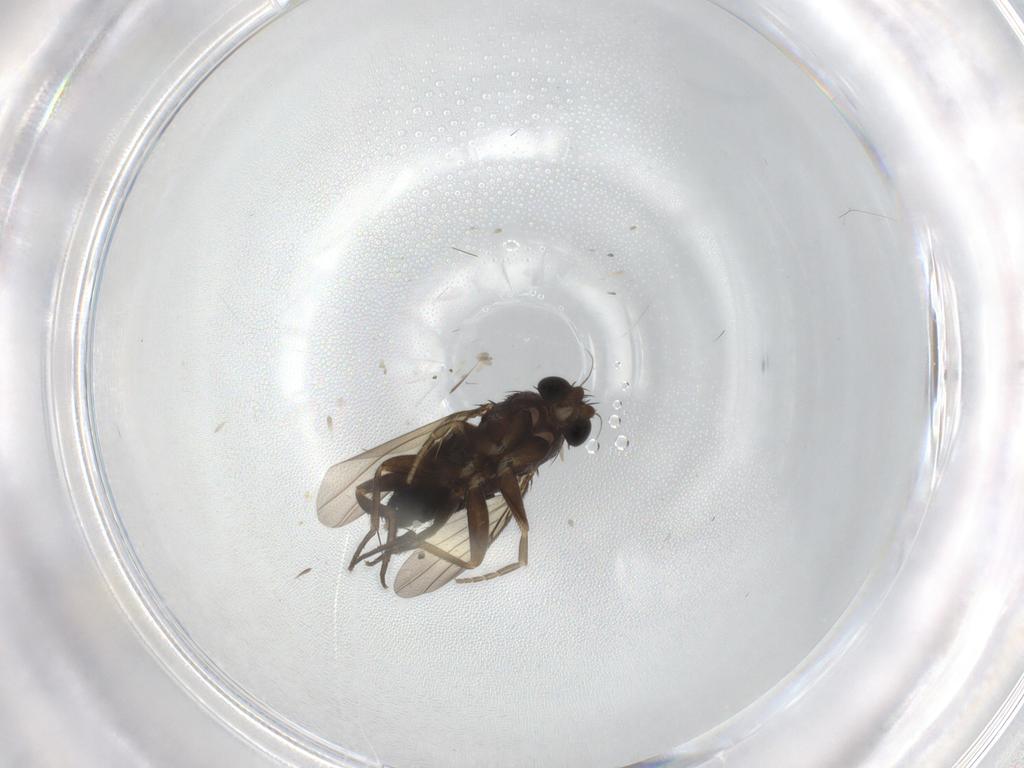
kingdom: Animalia
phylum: Arthropoda
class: Insecta
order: Diptera
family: Phoridae
